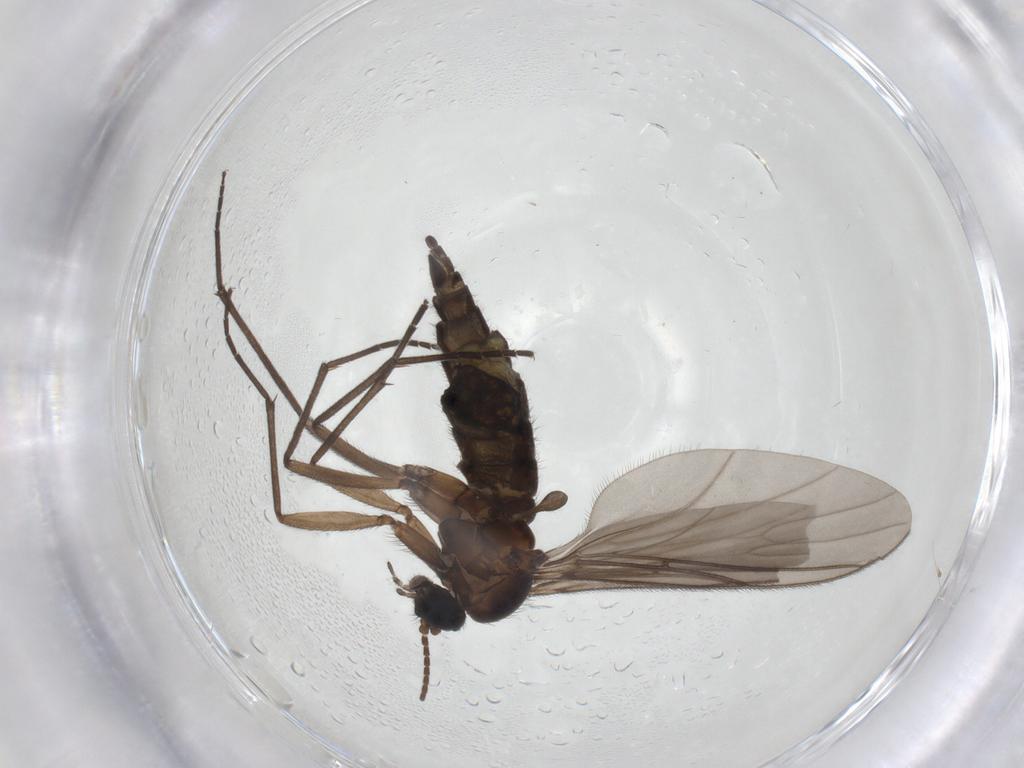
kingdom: Animalia
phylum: Arthropoda
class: Insecta
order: Diptera
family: Sciaridae
